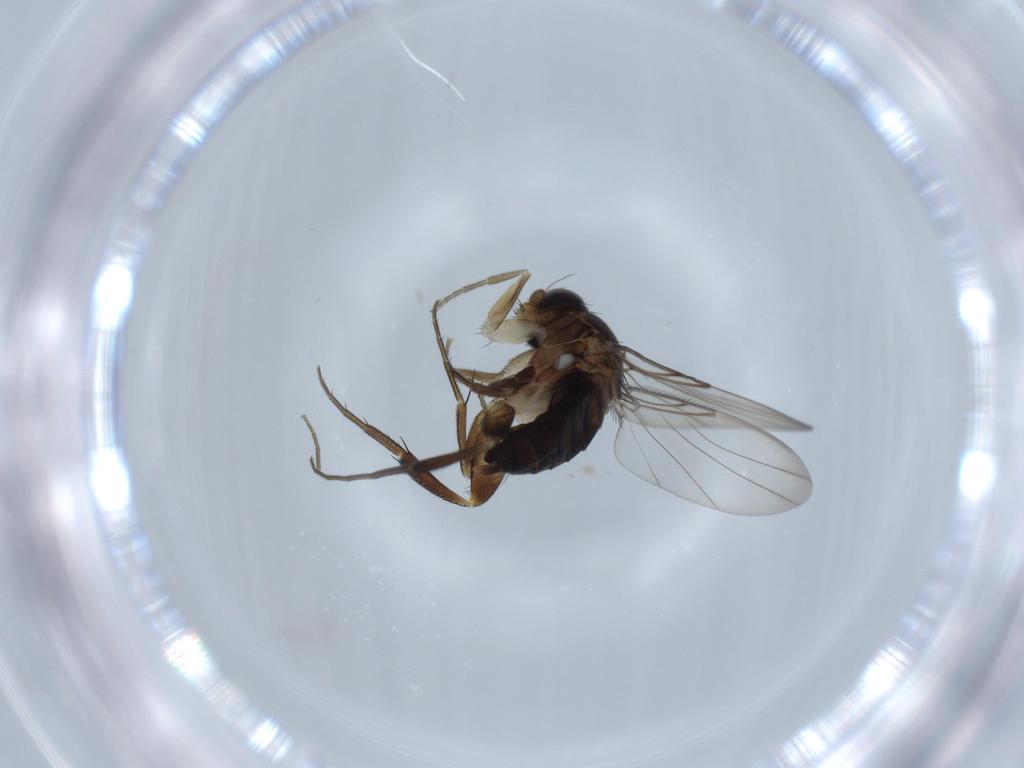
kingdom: Animalia
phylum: Arthropoda
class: Insecta
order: Diptera
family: Phoridae
